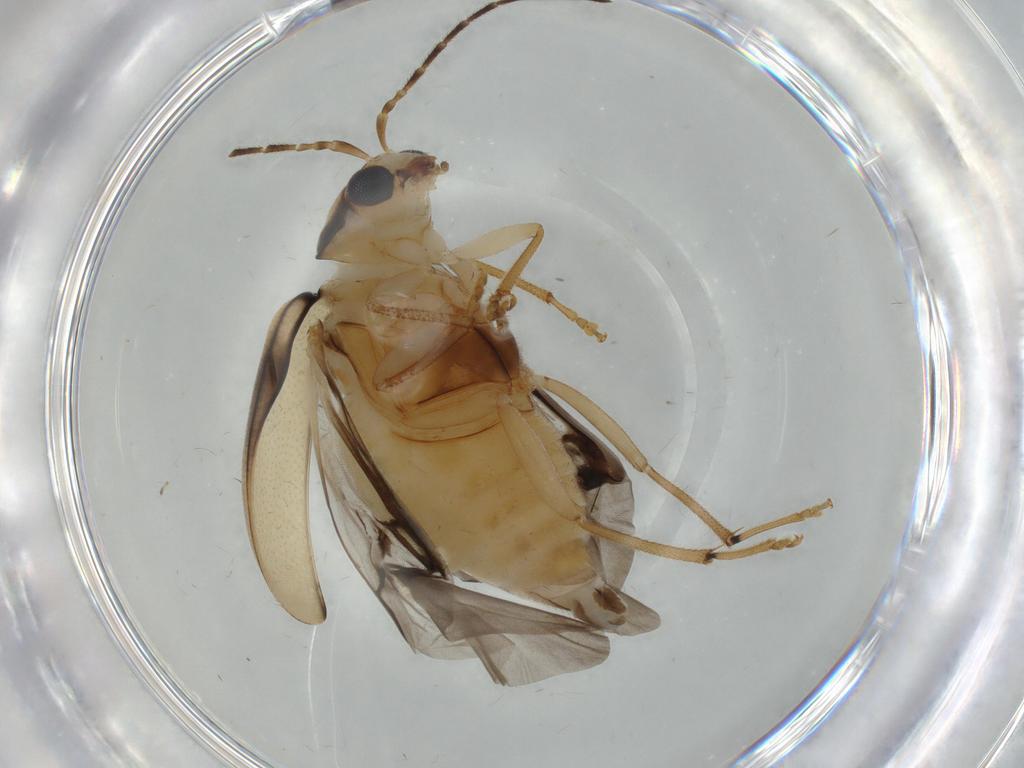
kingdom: Animalia
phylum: Arthropoda
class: Insecta
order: Coleoptera
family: Chrysomelidae
